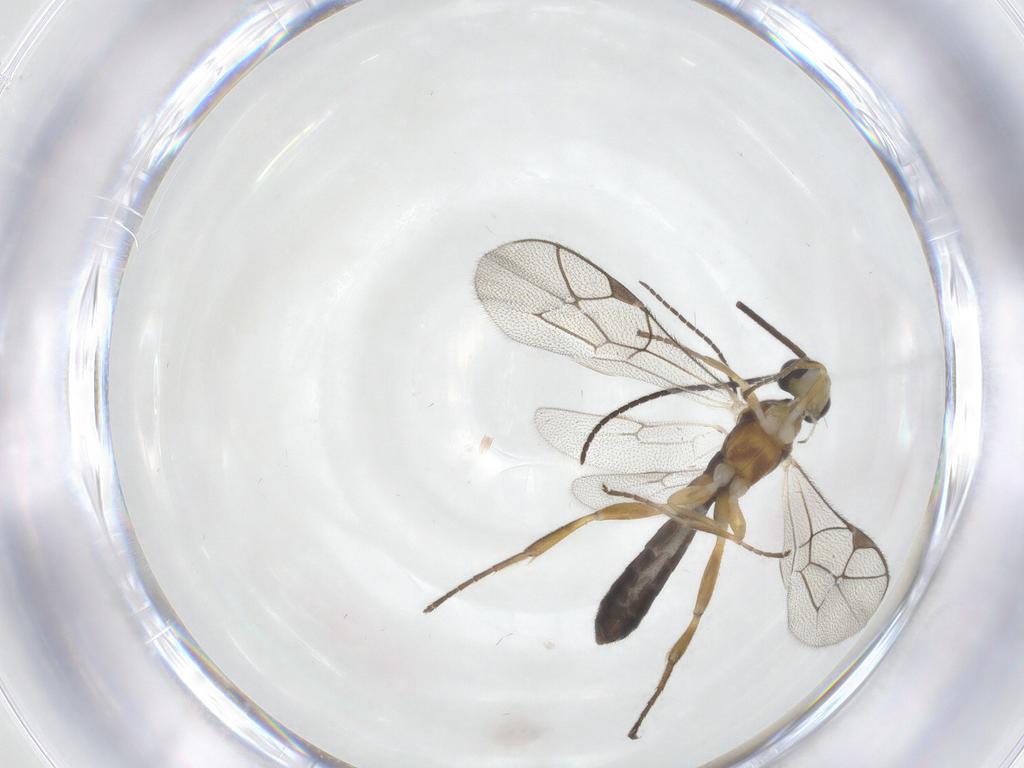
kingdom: Animalia
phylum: Arthropoda
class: Insecta
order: Hymenoptera
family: Ichneumonidae
